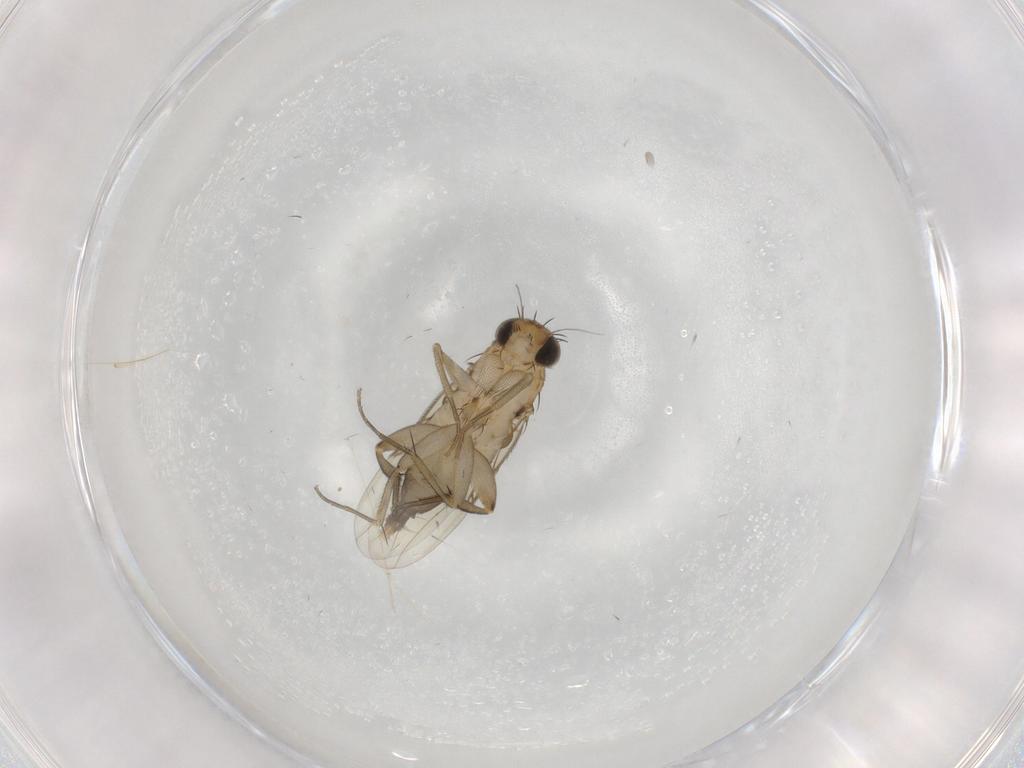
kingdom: Animalia
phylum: Arthropoda
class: Insecta
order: Diptera
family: Phoridae
